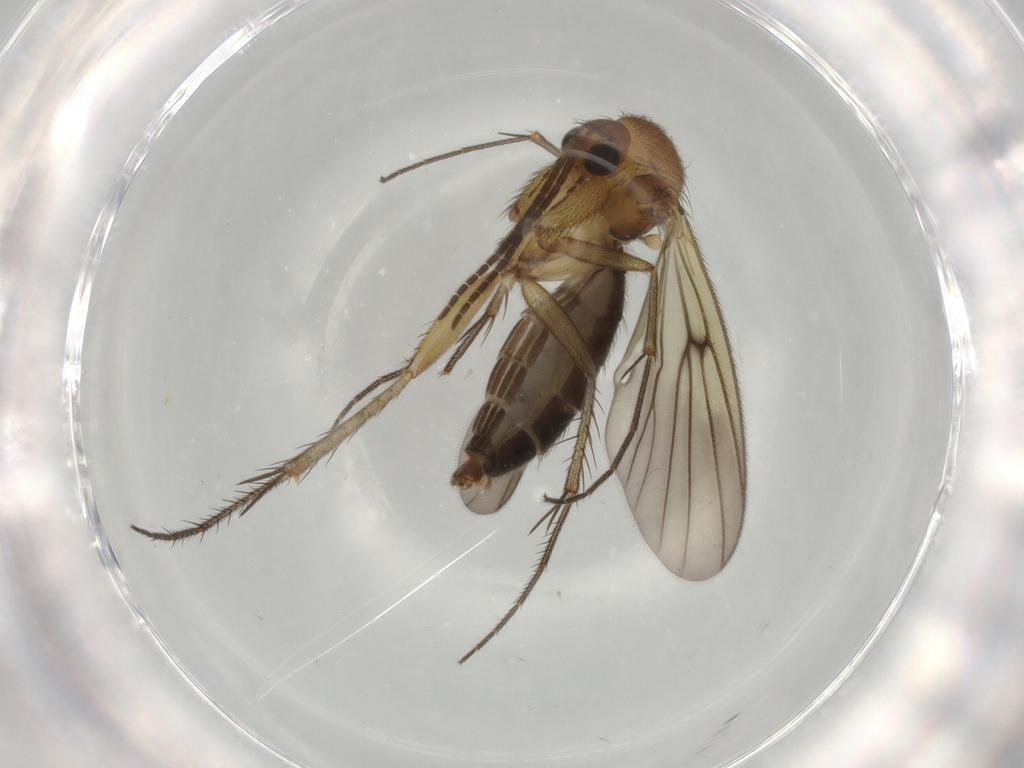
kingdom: Animalia
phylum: Arthropoda
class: Insecta
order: Diptera
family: Mycetophilidae
